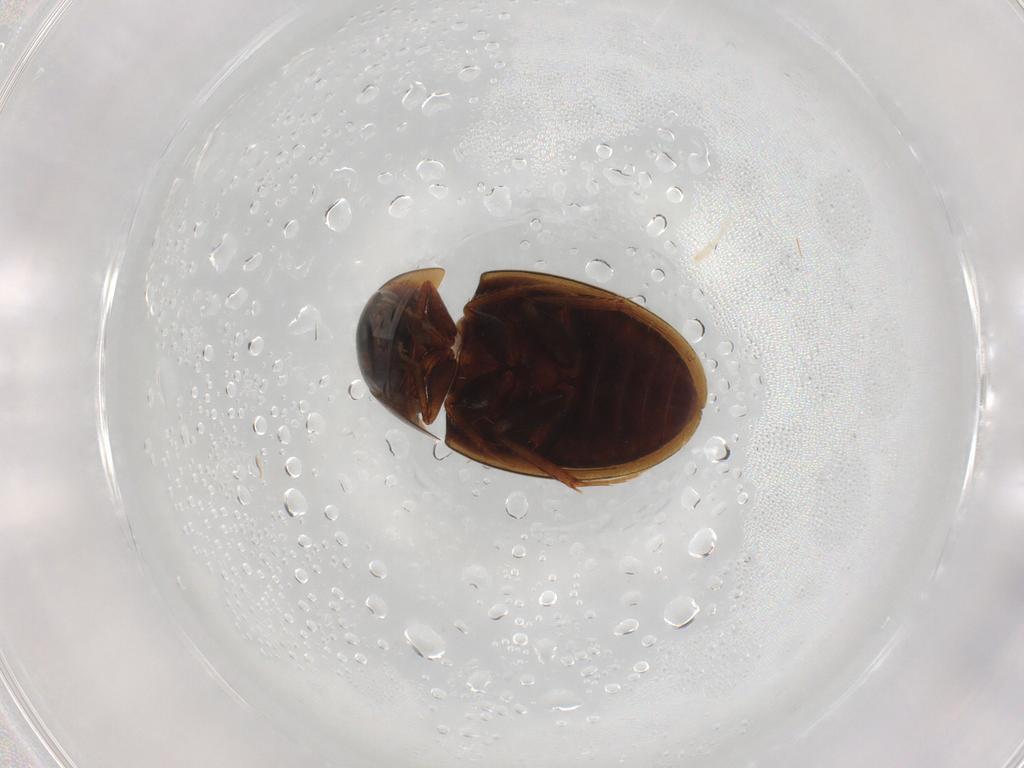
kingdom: Animalia
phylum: Arthropoda
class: Insecta
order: Coleoptera
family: Hydrophilidae
